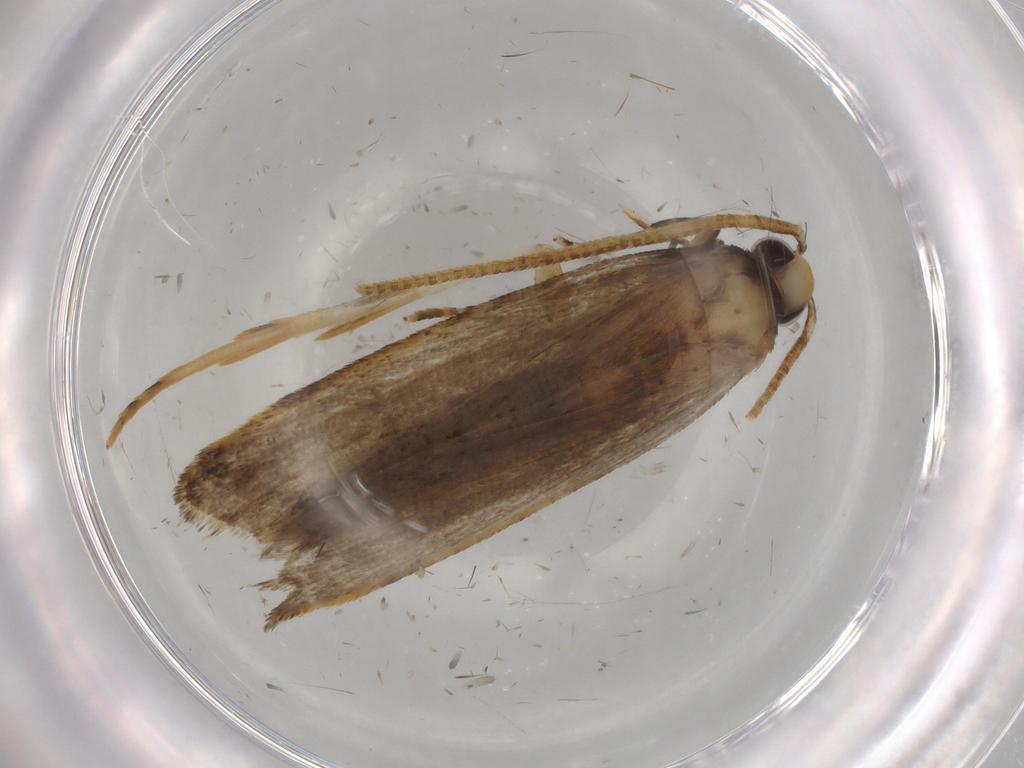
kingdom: Animalia
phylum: Arthropoda
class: Insecta
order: Lepidoptera
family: Autostichidae
